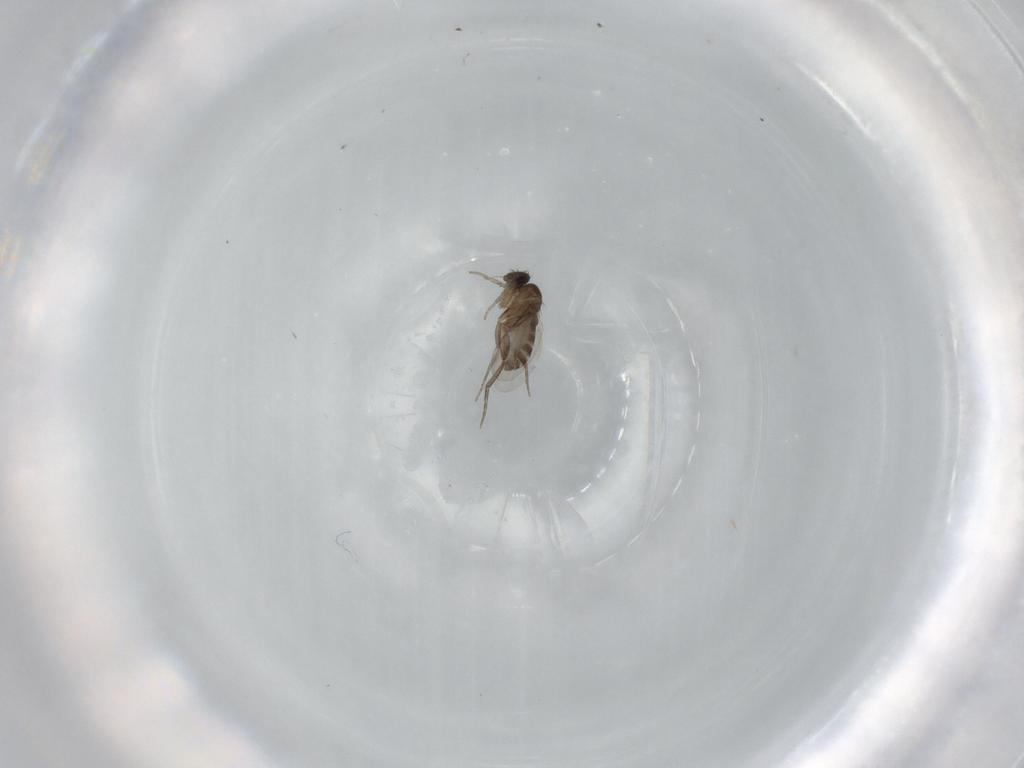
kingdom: Animalia
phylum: Arthropoda
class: Insecta
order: Diptera
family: Phoridae
